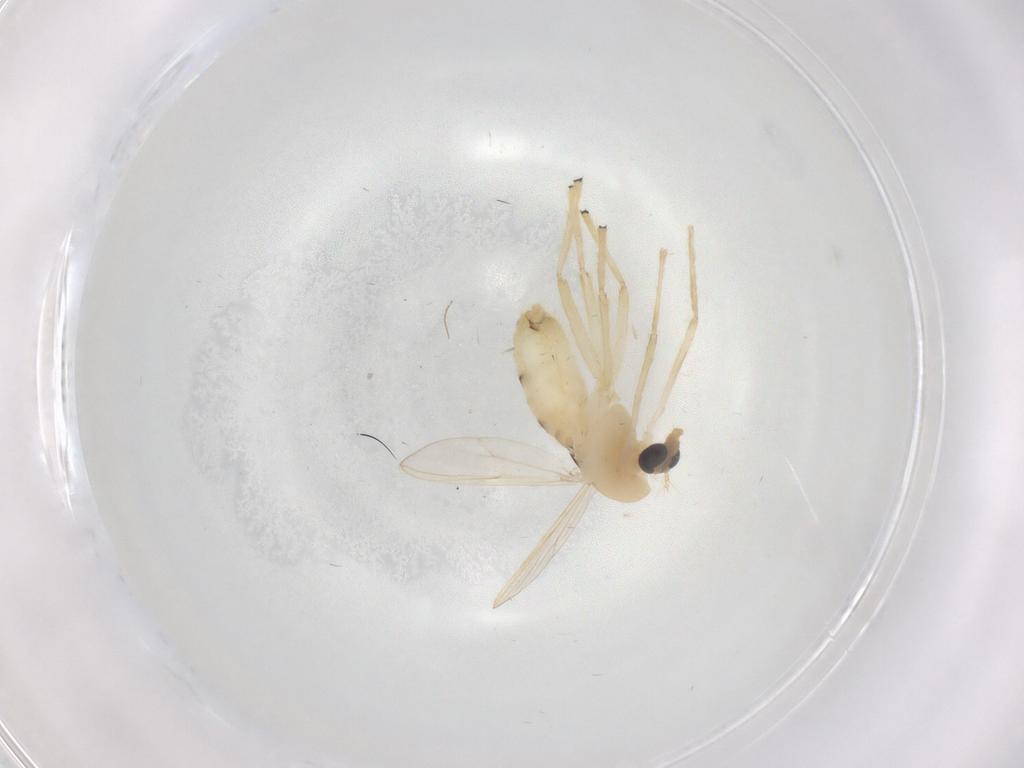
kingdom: Animalia
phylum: Arthropoda
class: Insecta
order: Diptera
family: Chironomidae
